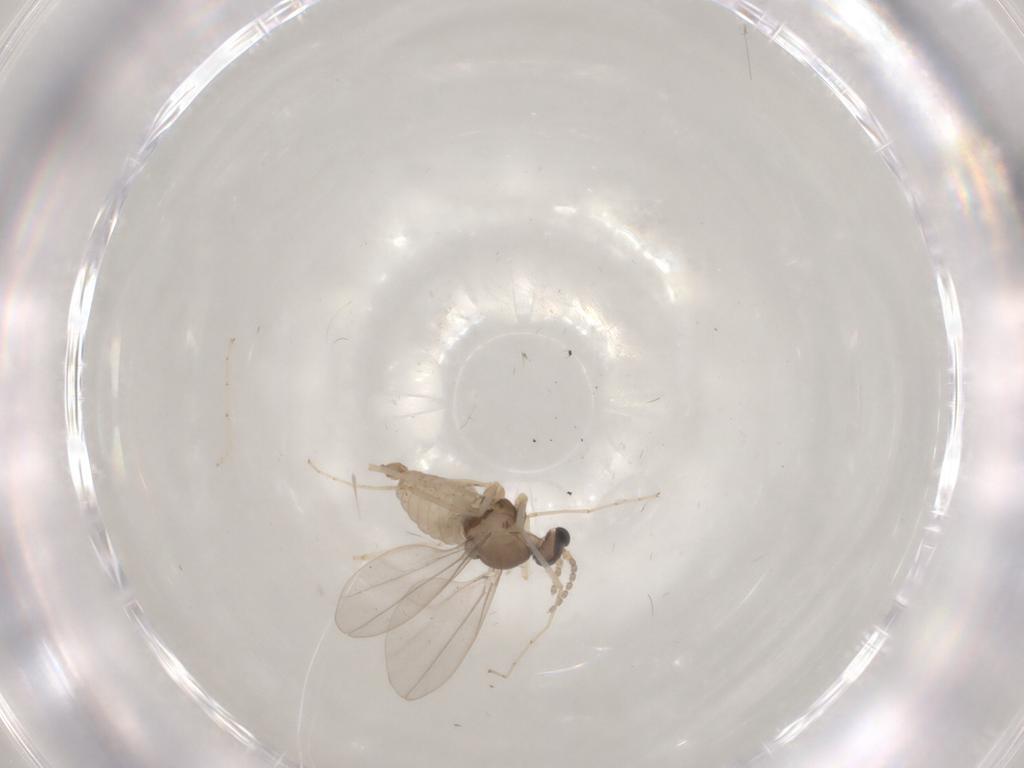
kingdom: Animalia
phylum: Arthropoda
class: Insecta
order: Diptera
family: Cecidomyiidae
